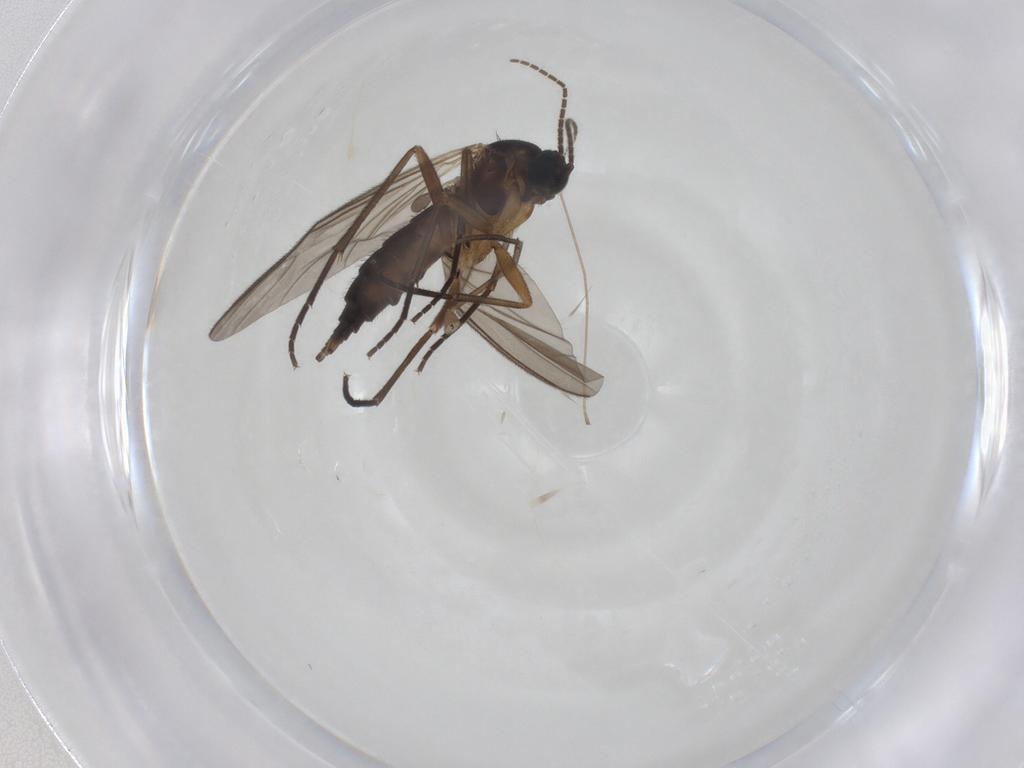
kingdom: Animalia
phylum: Arthropoda
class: Insecta
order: Diptera
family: Sciaridae
